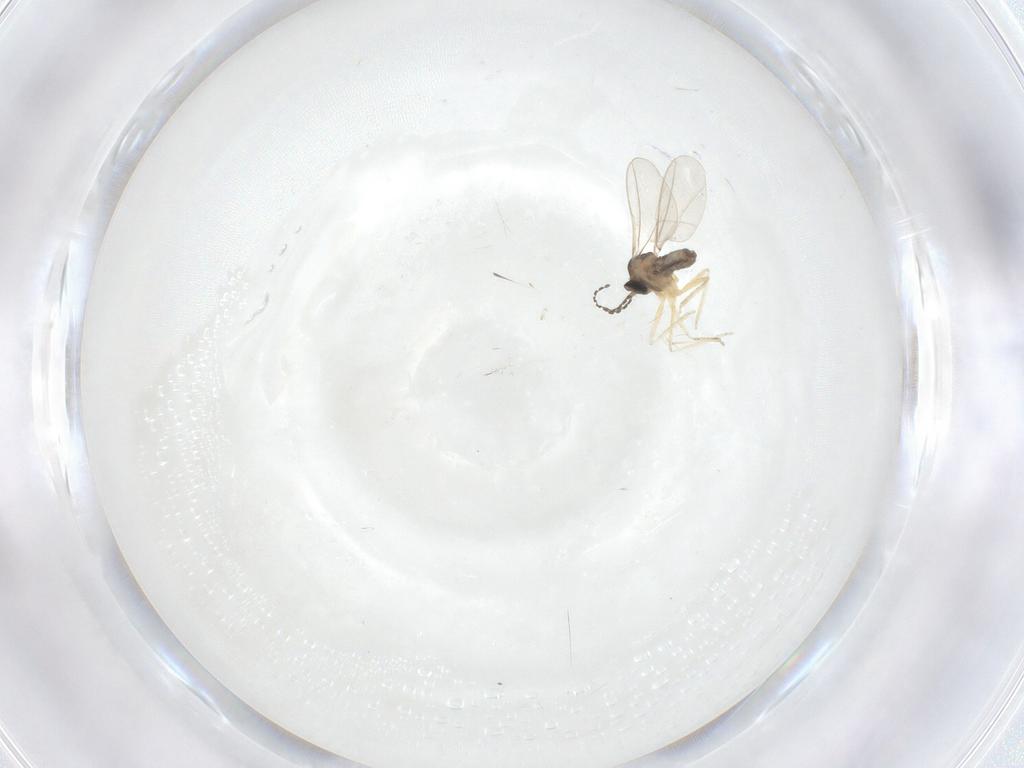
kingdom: Animalia
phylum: Arthropoda
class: Insecta
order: Diptera
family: Cecidomyiidae
